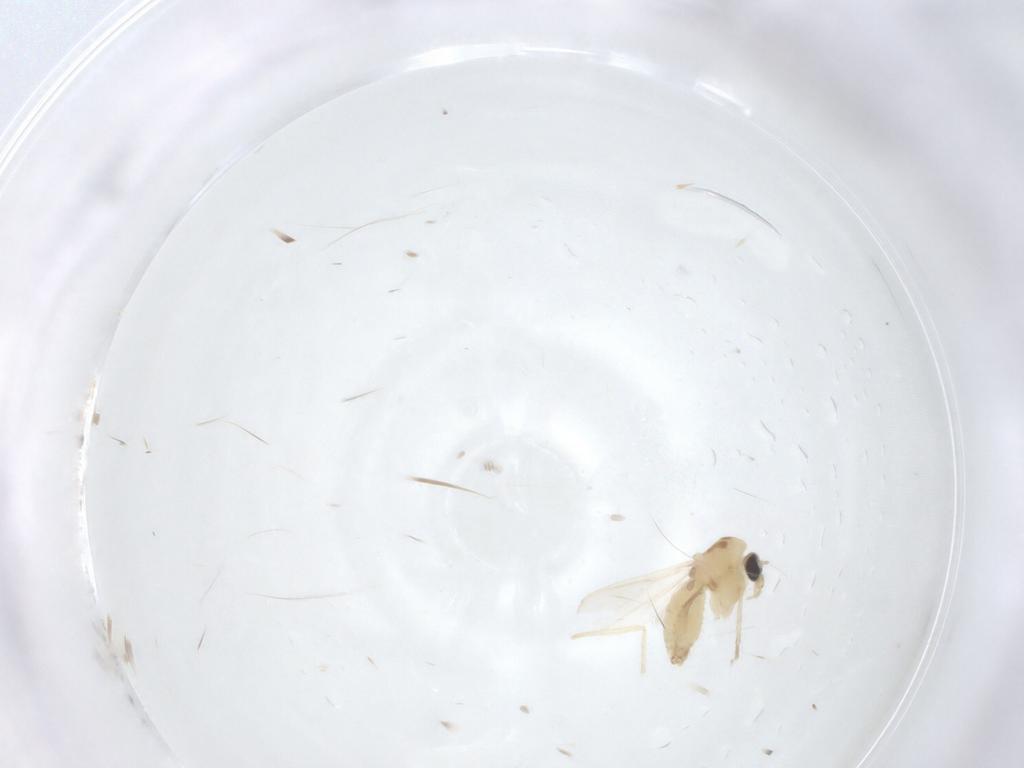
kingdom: Animalia
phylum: Arthropoda
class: Insecta
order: Diptera
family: Chironomidae
